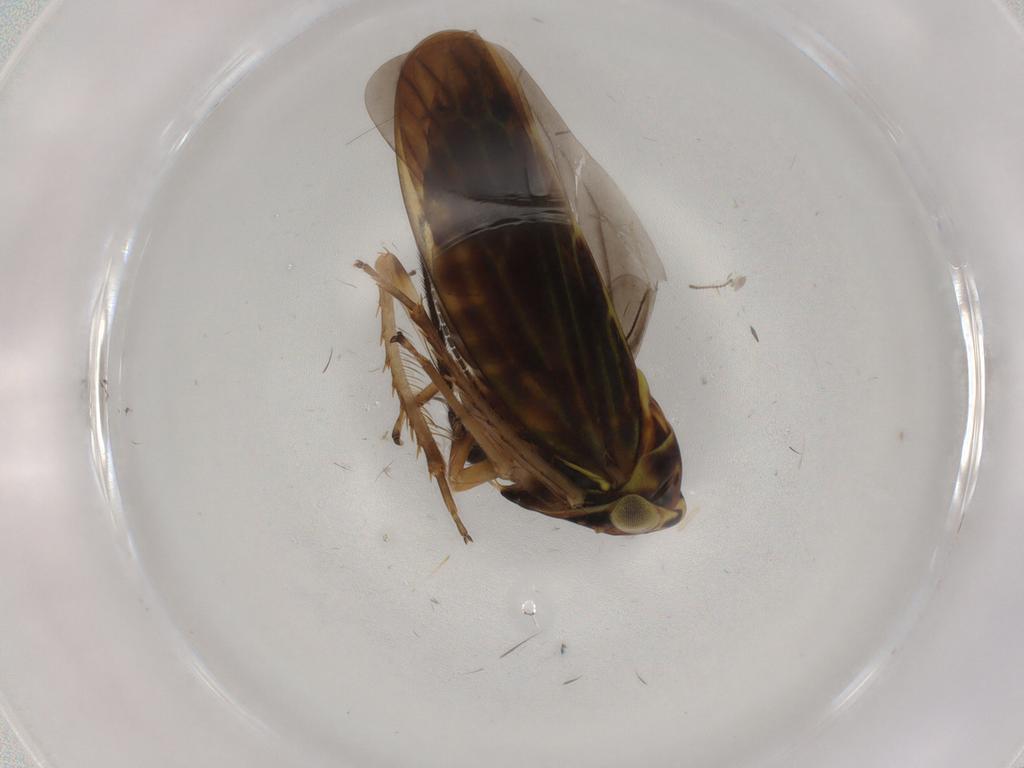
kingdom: Animalia
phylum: Arthropoda
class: Insecta
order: Hemiptera
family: Cicadellidae
